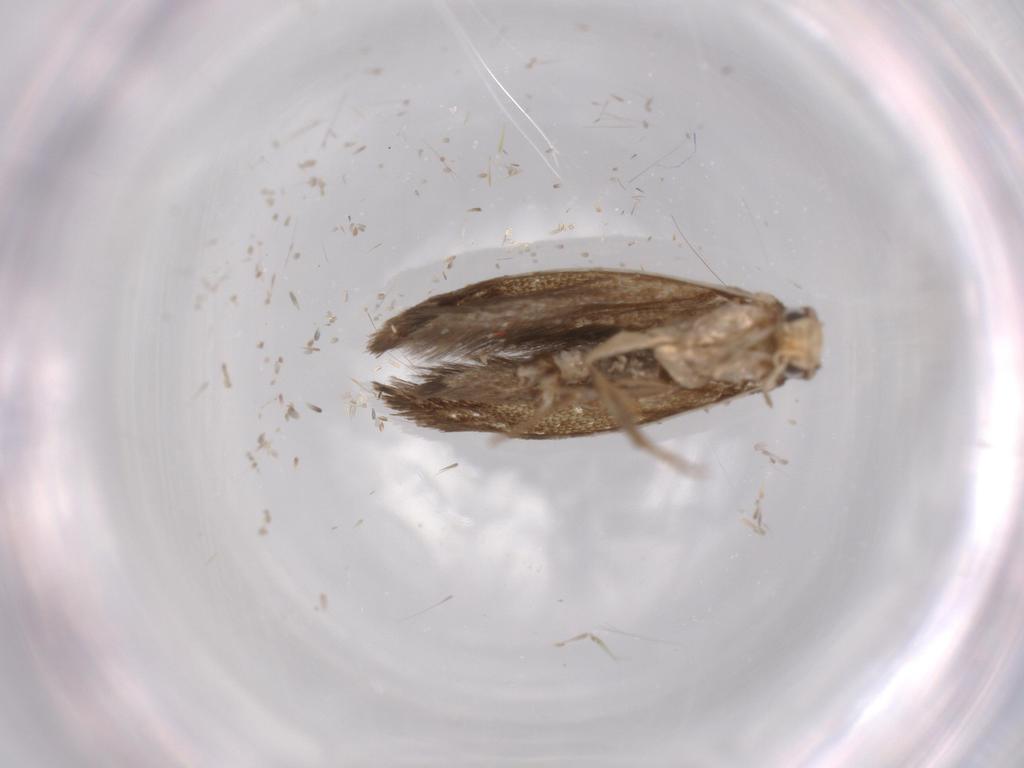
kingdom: Animalia
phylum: Arthropoda
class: Insecta
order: Lepidoptera
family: Tineidae
